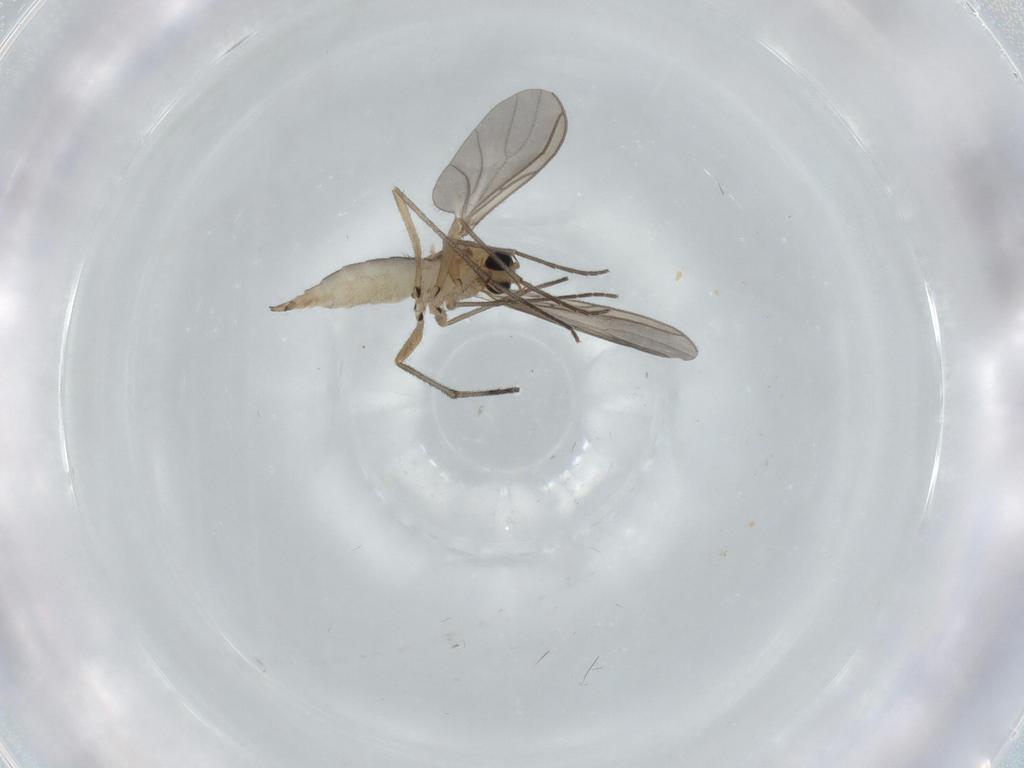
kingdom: Animalia
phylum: Arthropoda
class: Insecta
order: Diptera
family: Sciaridae
